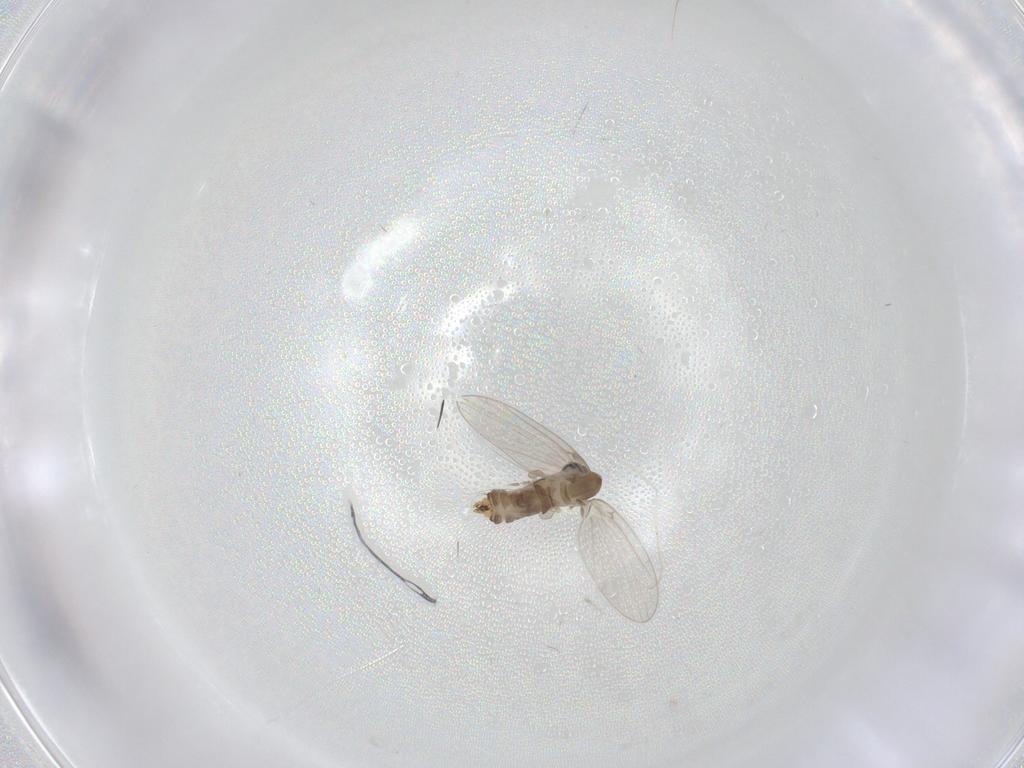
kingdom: Animalia
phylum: Arthropoda
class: Insecta
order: Diptera
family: Psychodidae
